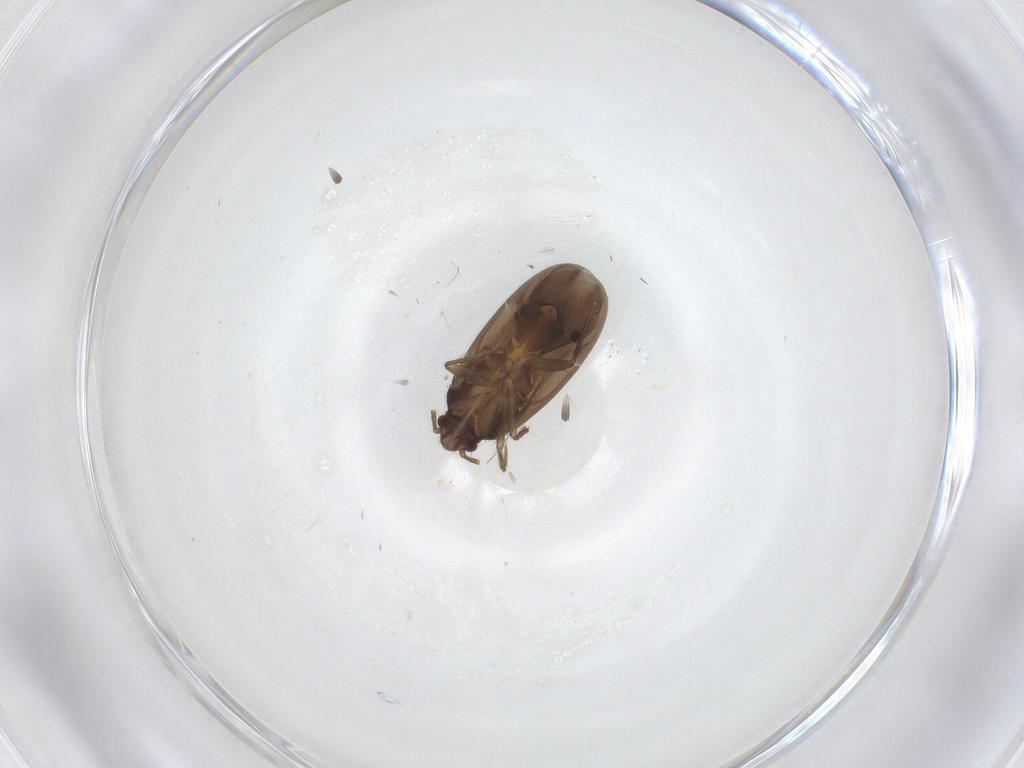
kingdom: Animalia
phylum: Arthropoda
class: Insecta
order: Hemiptera
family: Ceratocombidae
